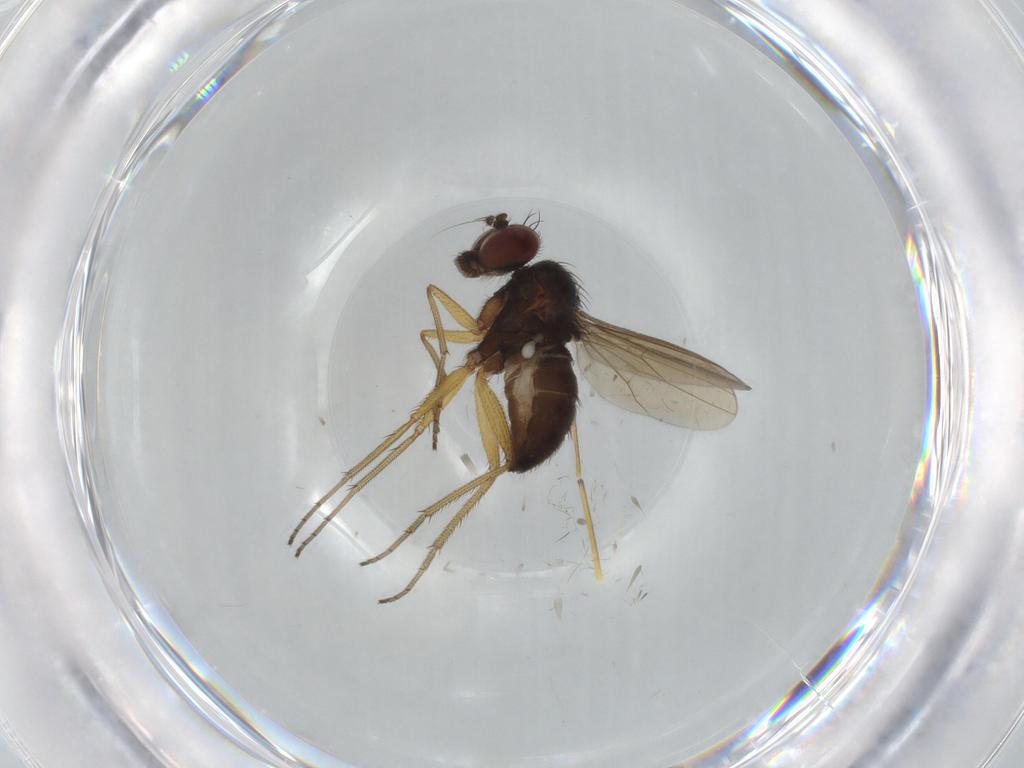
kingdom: Animalia
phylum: Arthropoda
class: Insecta
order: Diptera
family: Dolichopodidae
